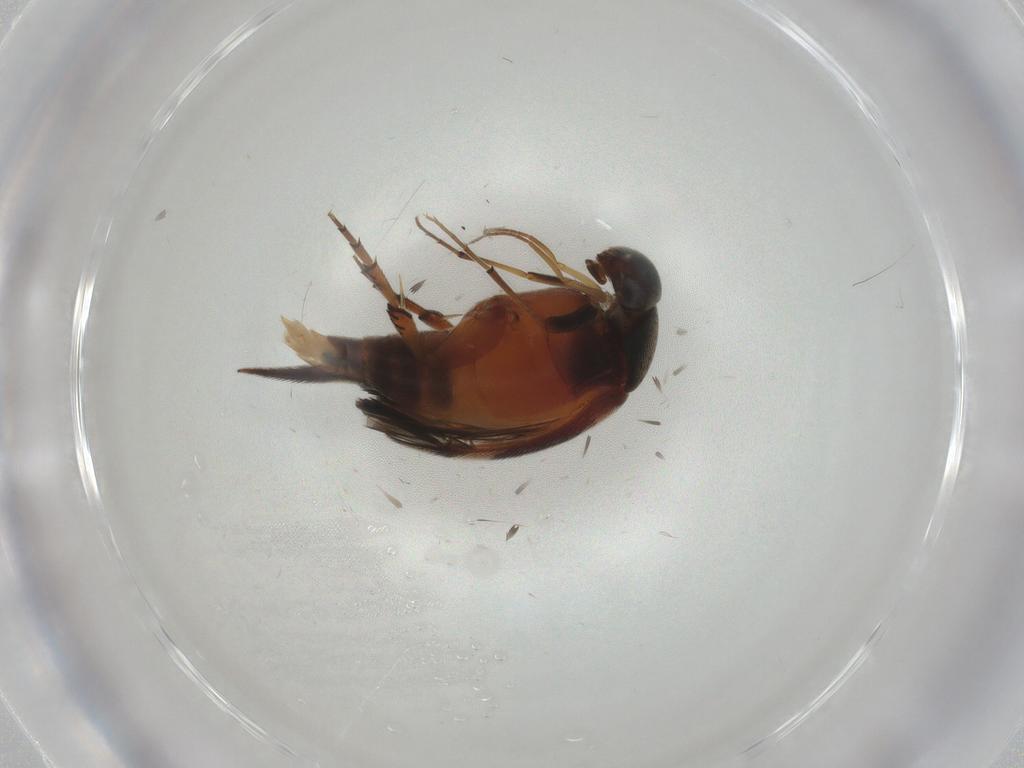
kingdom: Animalia
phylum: Arthropoda
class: Insecta
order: Coleoptera
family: Mordellidae
